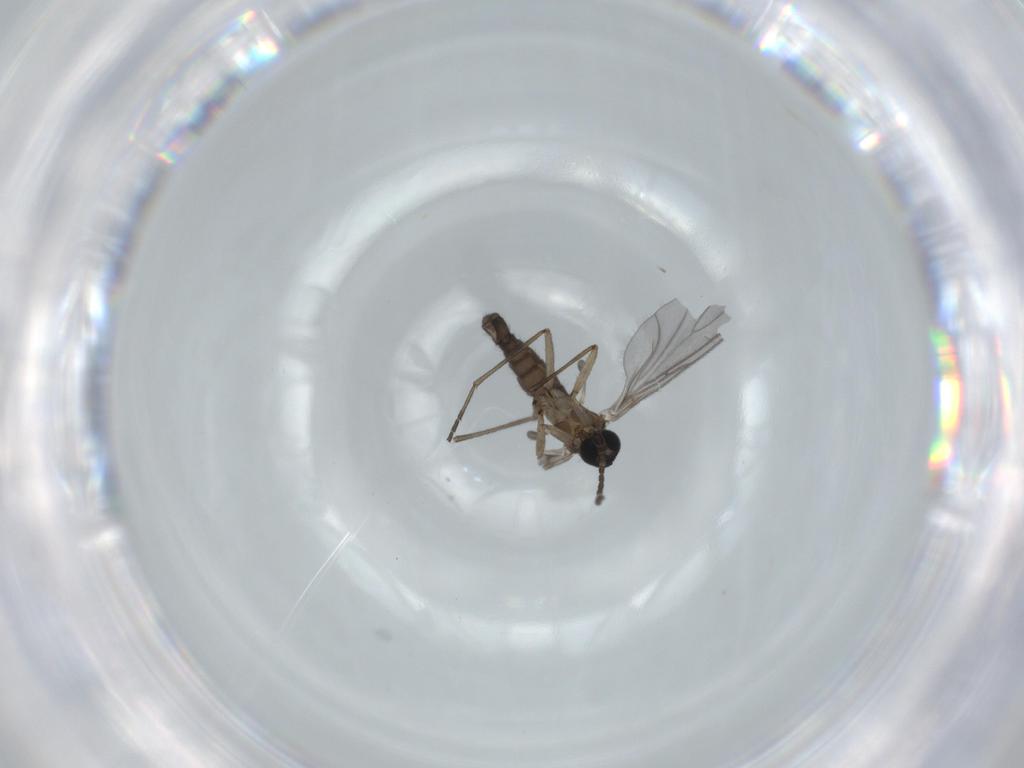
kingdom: Animalia
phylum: Arthropoda
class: Insecta
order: Diptera
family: Sciaridae
